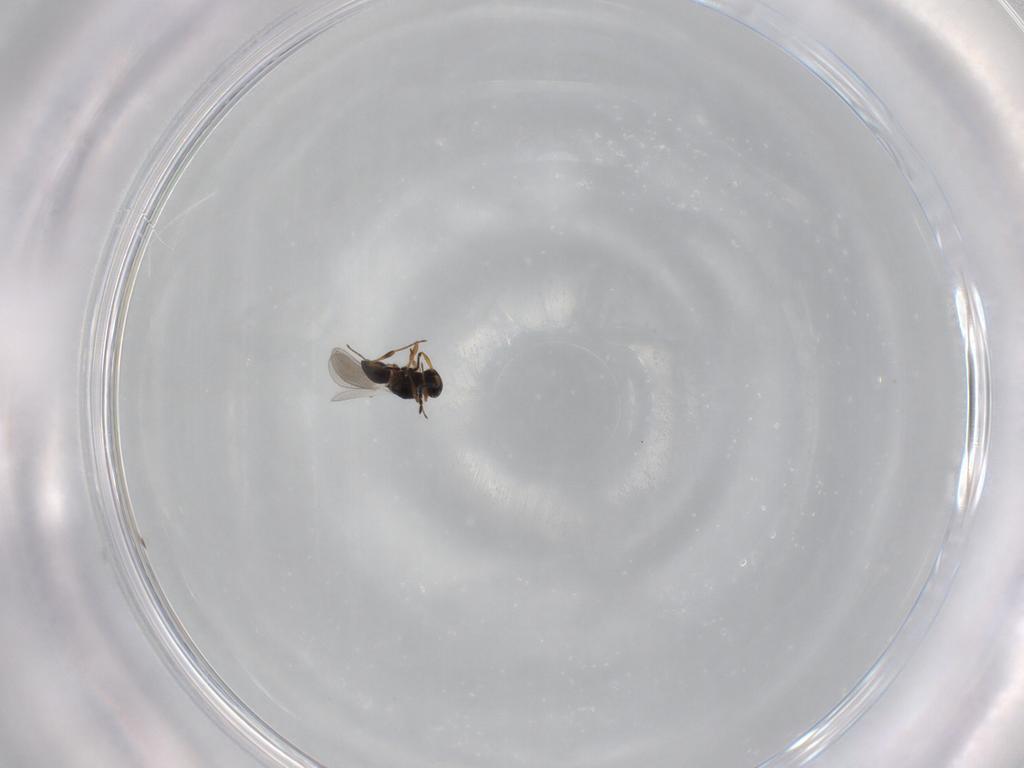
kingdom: Animalia
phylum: Arthropoda
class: Insecta
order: Hymenoptera
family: Platygastridae
